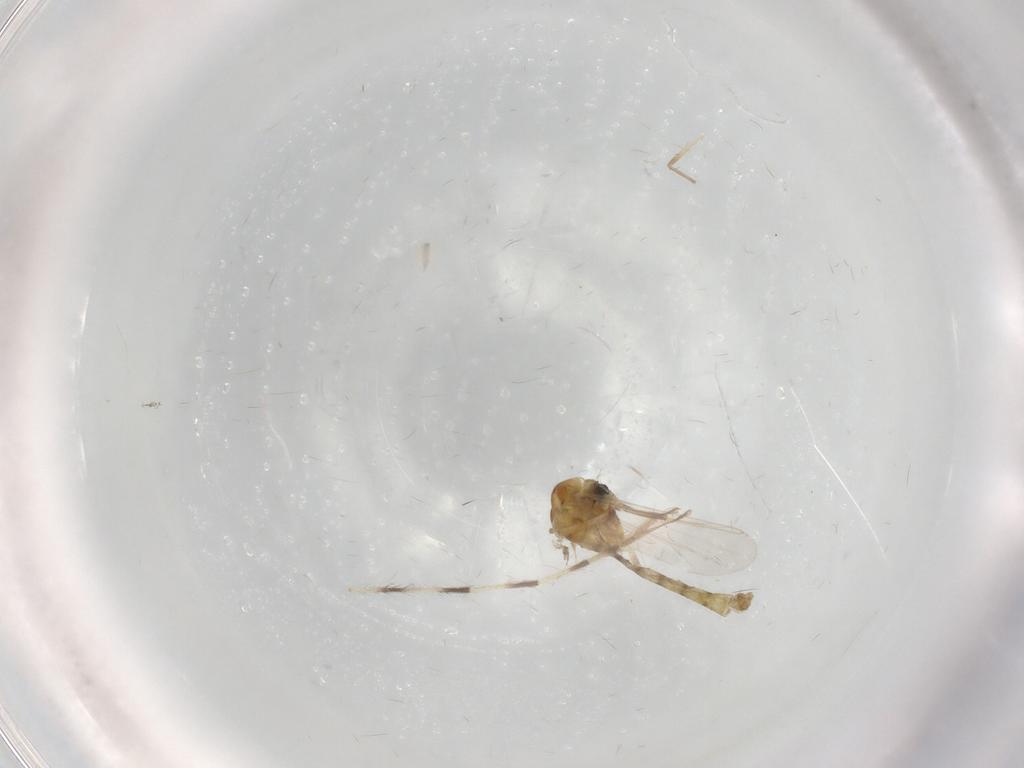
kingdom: Animalia
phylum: Arthropoda
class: Insecta
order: Diptera
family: Chironomidae
